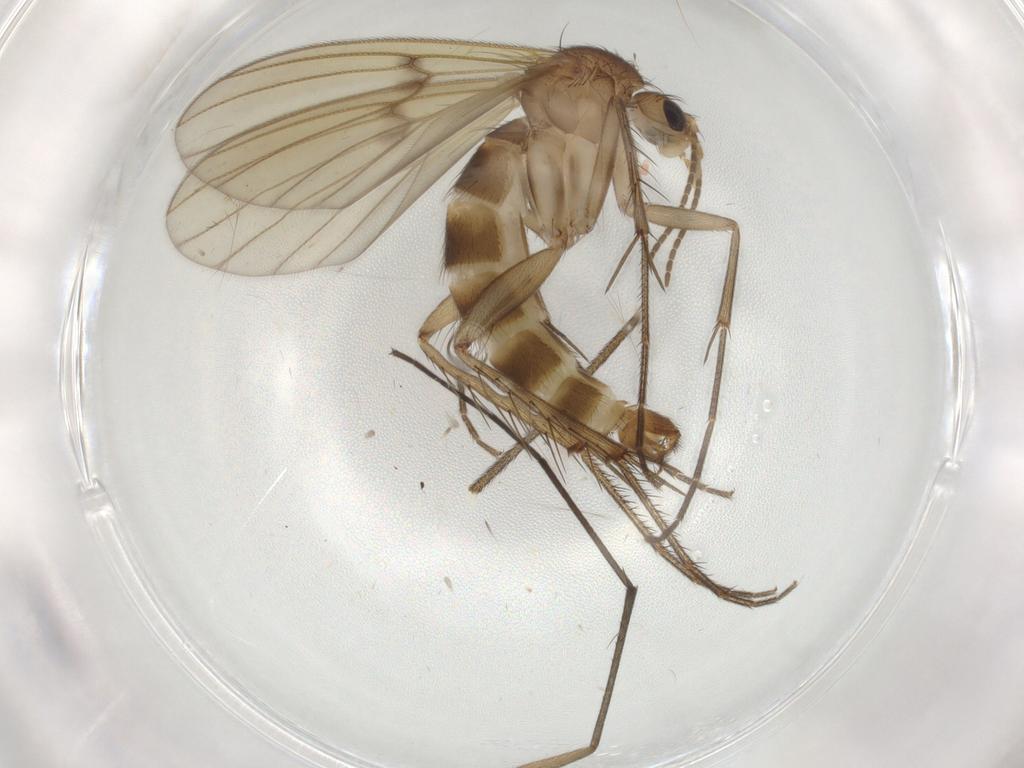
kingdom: Animalia
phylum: Arthropoda
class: Insecta
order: Diptera
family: Mycetophilidae
